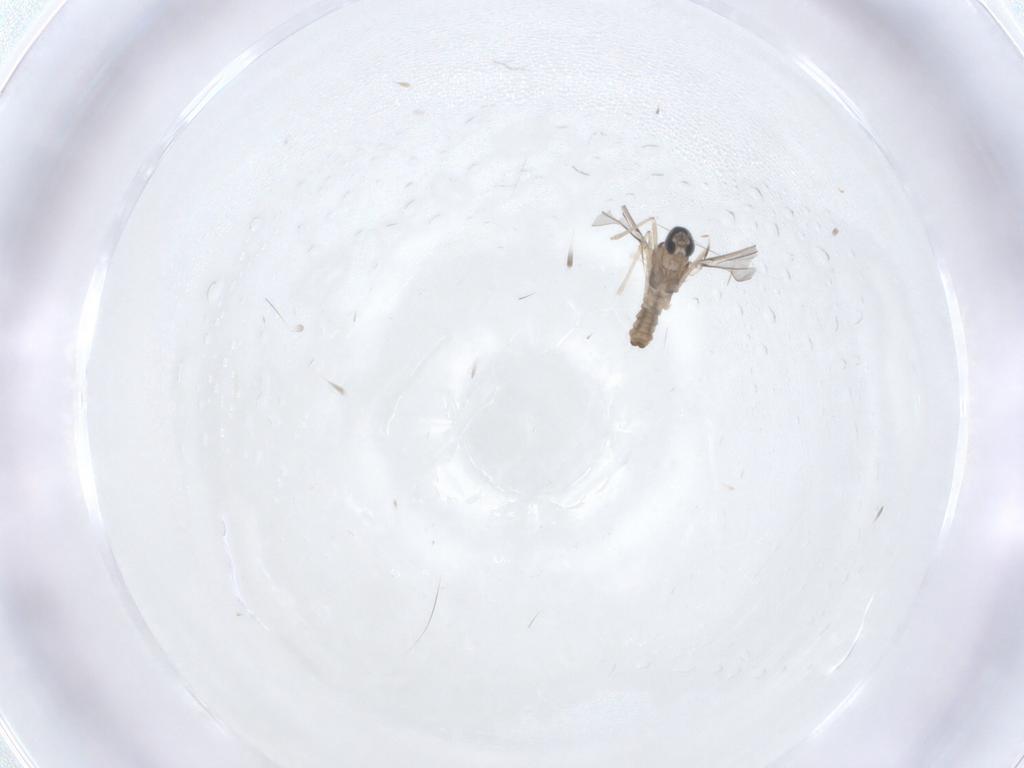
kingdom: Animalia
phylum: Arthropoda
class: Insecta
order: Diptera
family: Cecidomyiidae
